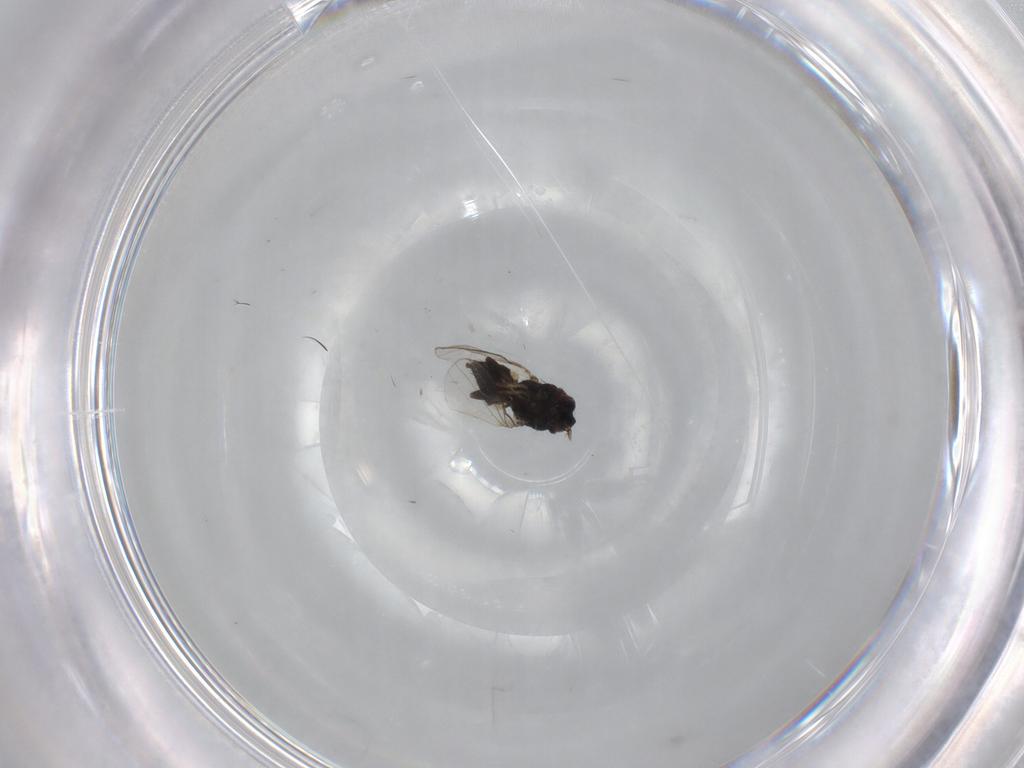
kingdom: Animalia
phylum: Arthropoda
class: Insecta
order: Diptera
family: Milichiidae
